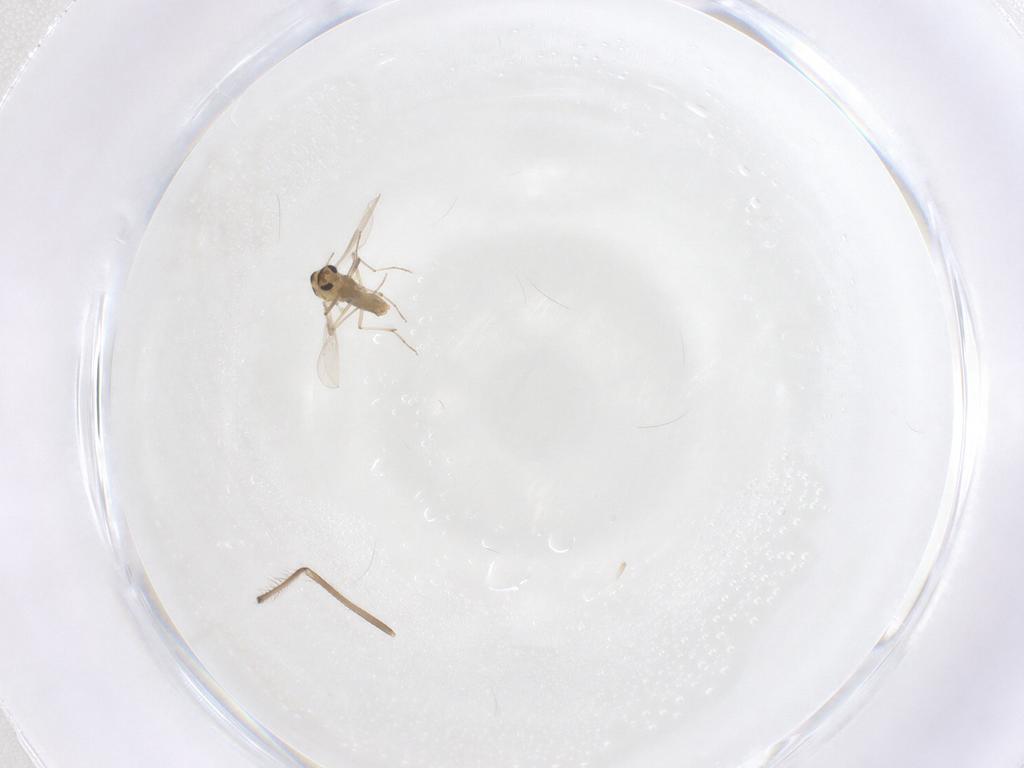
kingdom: Animalia
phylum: Arthropoda
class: Insecta
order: Diptera
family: Chironomidae
